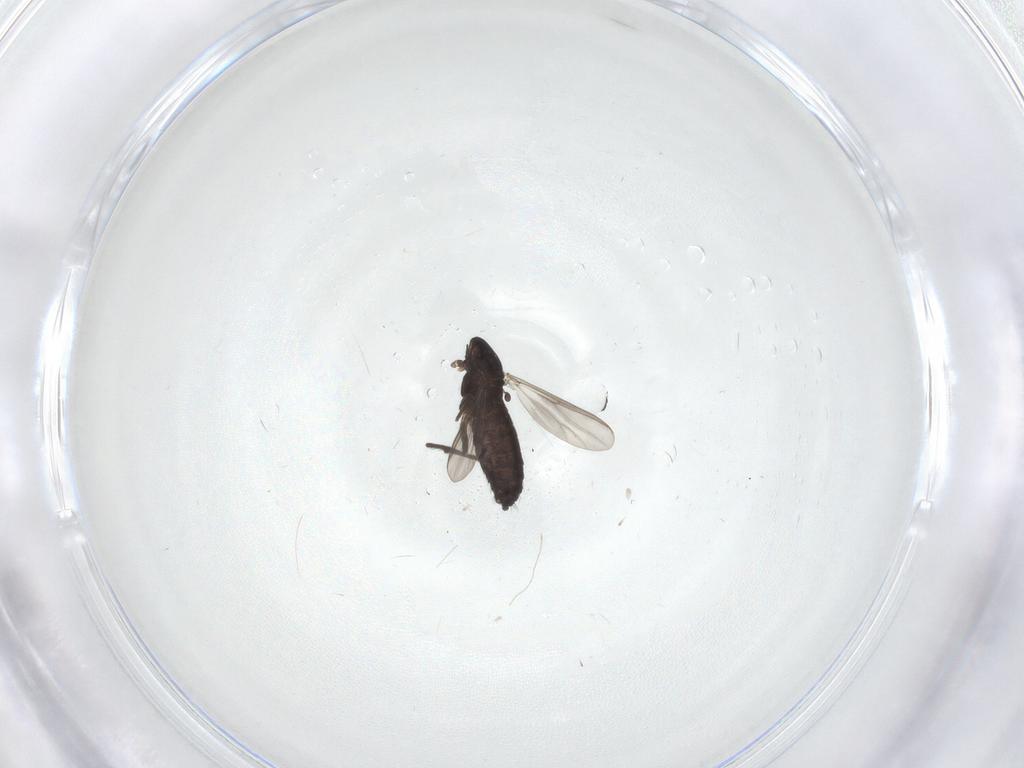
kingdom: Animalia
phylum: Arthropoda
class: Insecta
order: Diptera
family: Chironomidae
